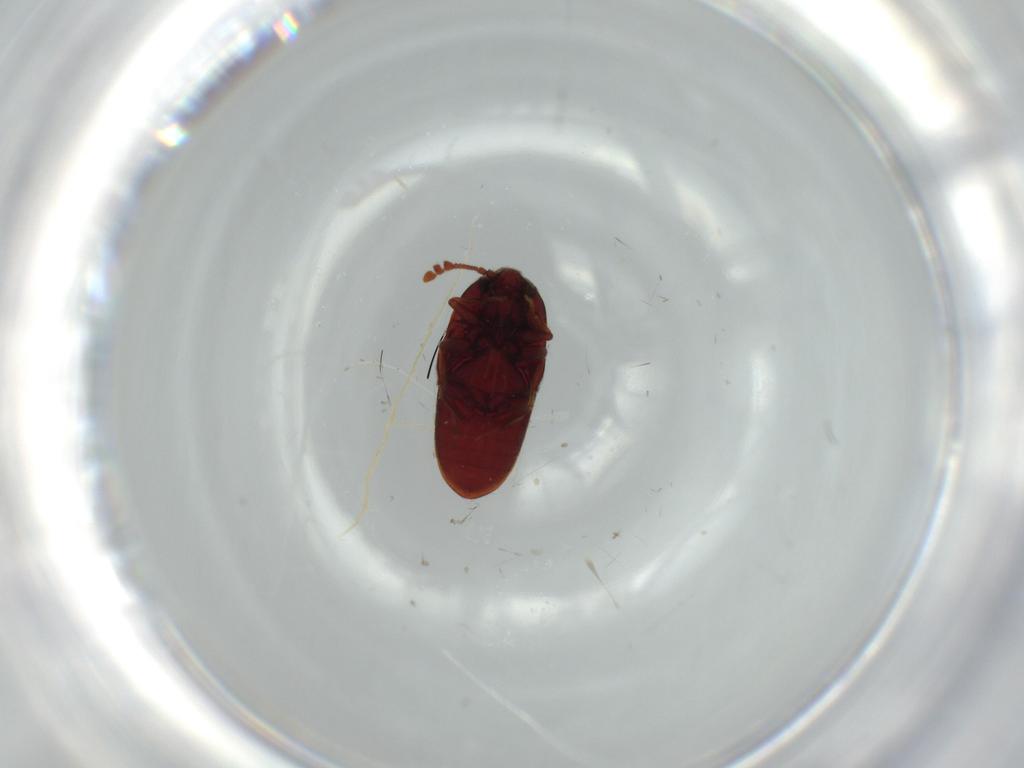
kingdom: Animalia
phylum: Arthropoda
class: Insecta
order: Coleoptera
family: Throscidae
